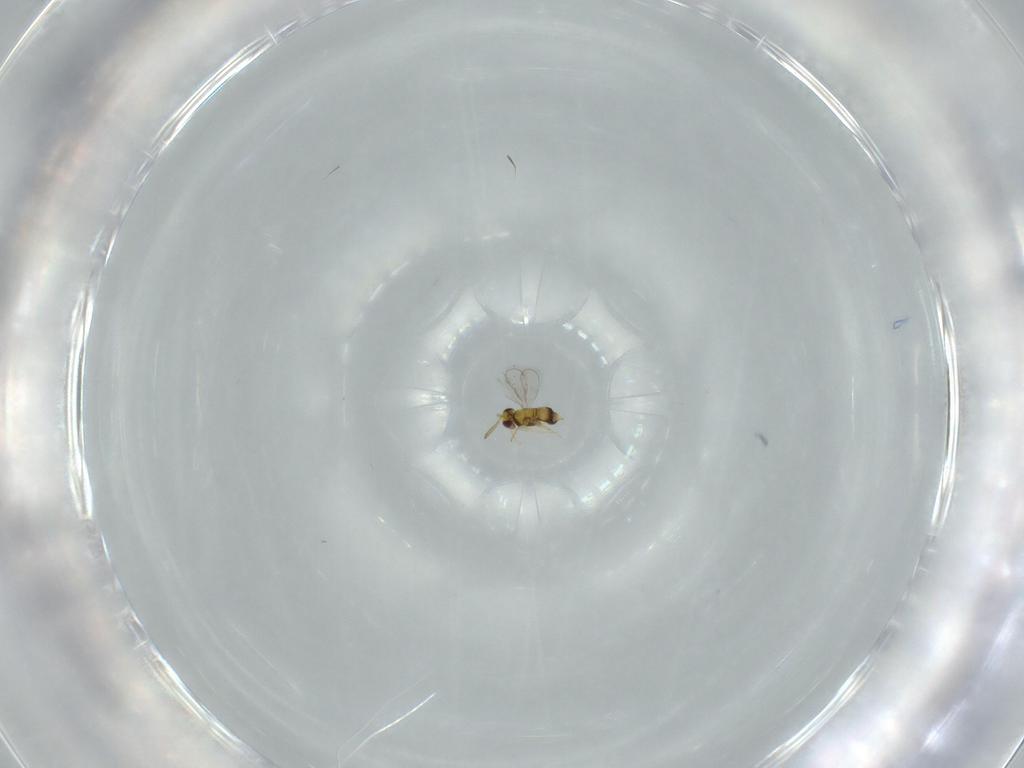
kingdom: Animalia
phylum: Arthropoda
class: Insecta
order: Hymenoptera
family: Aphelinidae
